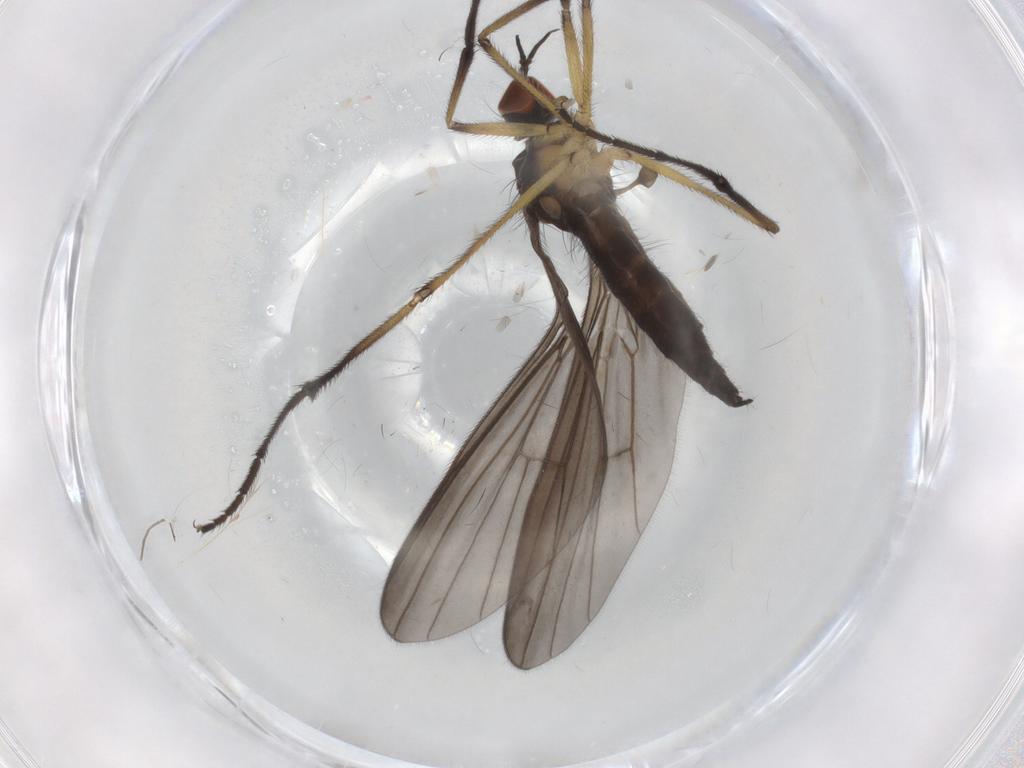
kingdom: Animalia
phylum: Arthropoda
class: Insecta
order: Diptera
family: Empididae
